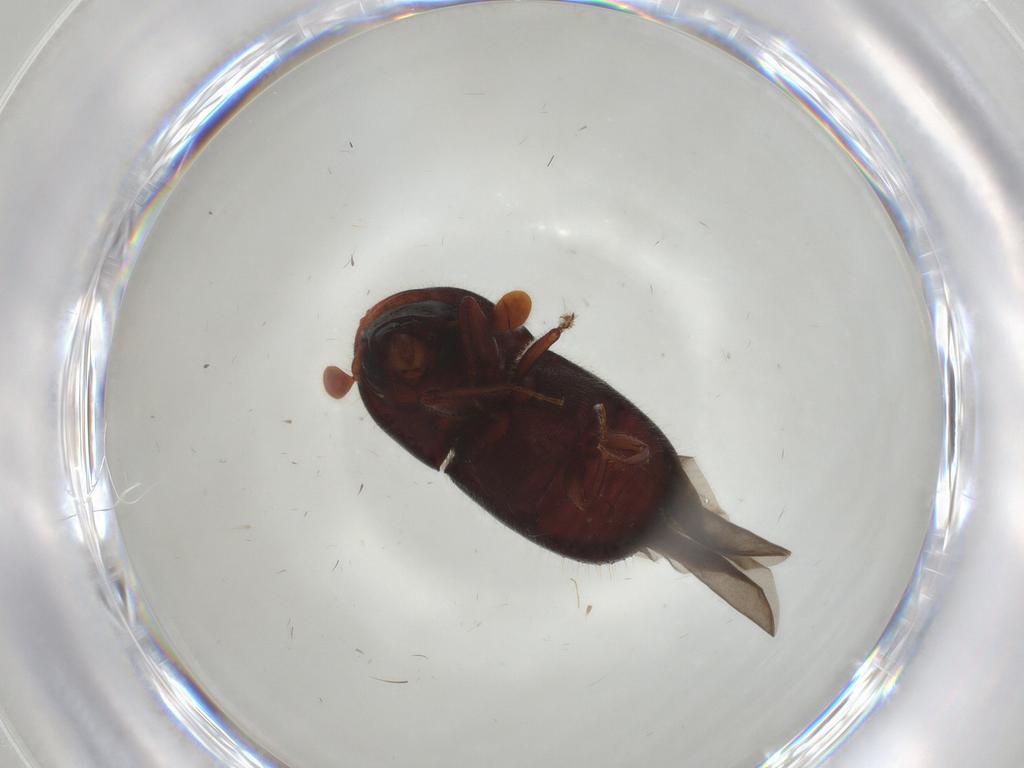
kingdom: Animalia
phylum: Arthropoda
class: Insecta
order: Coleoptera
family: Curculionidae
